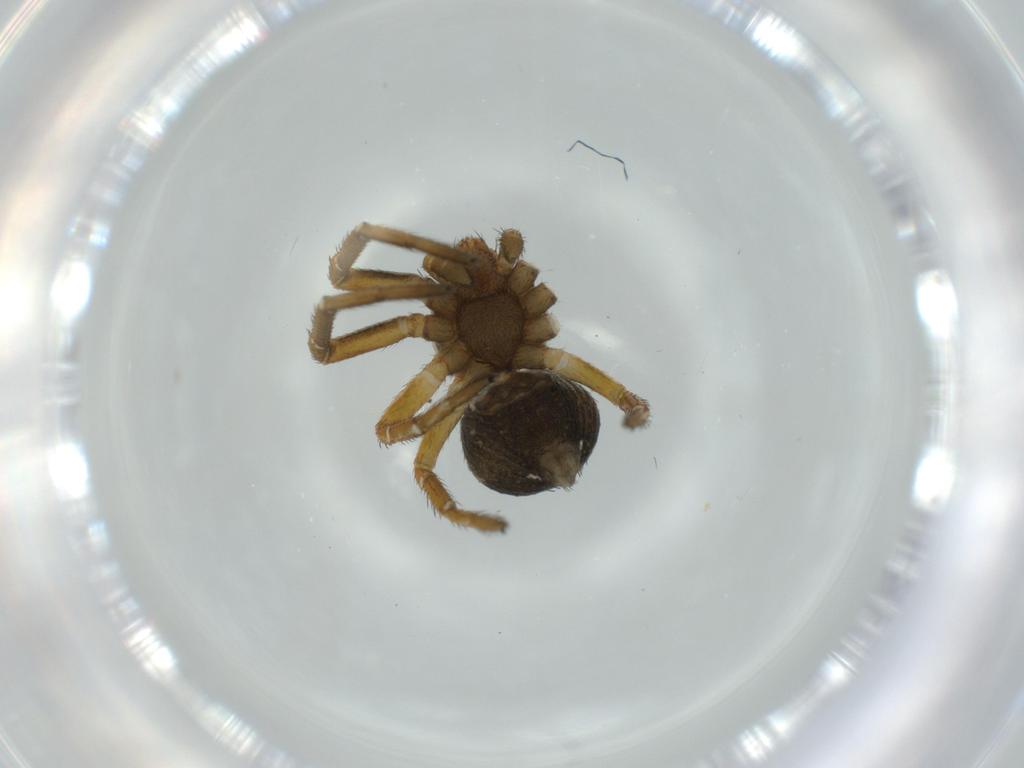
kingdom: Animalia
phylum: Arthropoda
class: Arachnida
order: Araneae
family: Thomisidae
